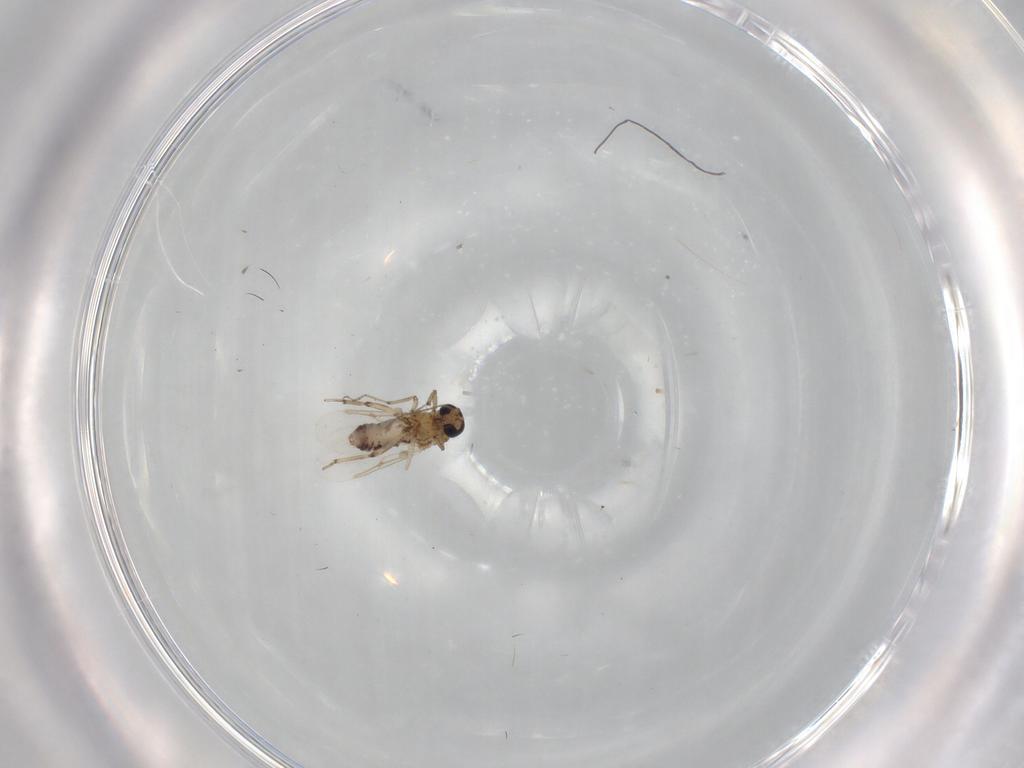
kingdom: Animalia
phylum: Arthropoda
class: Insecta
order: Diptera
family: Ceratopogonidae
